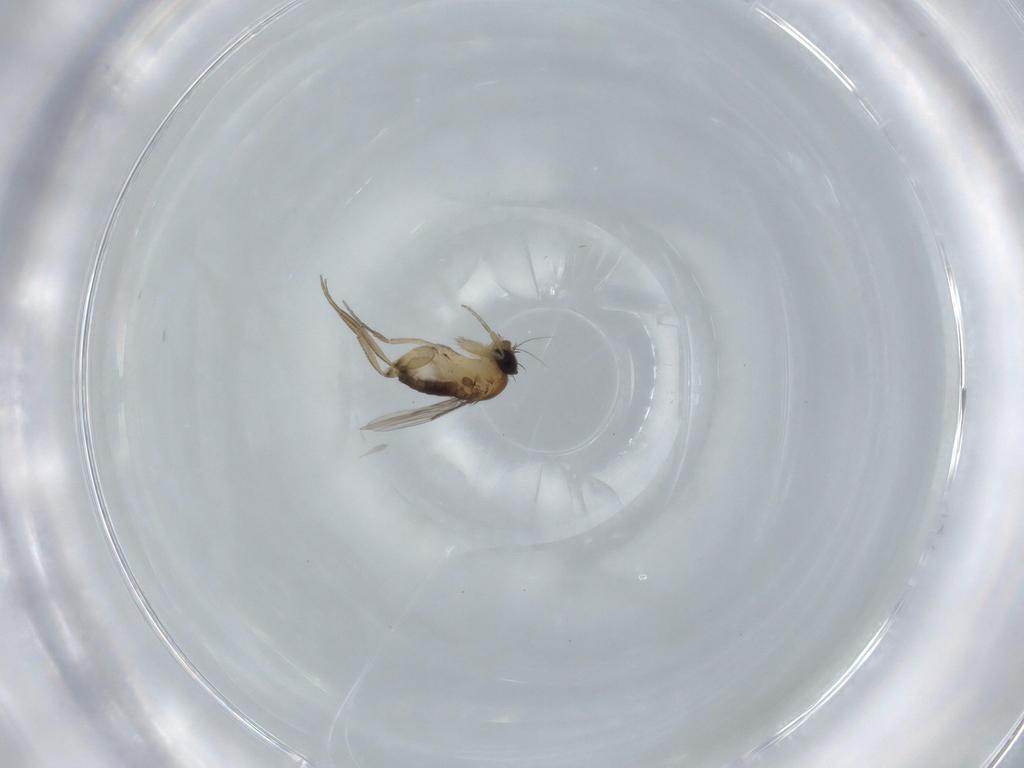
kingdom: Animalia
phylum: Arthropoda
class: Insecta
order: Diptera
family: Phoridae
